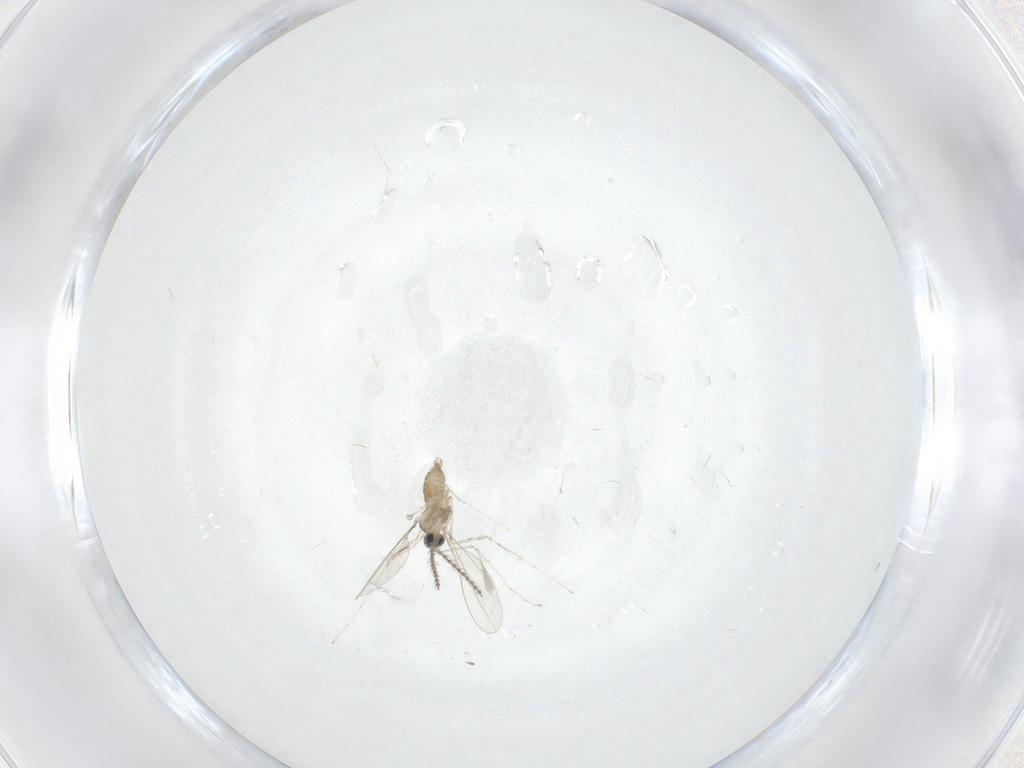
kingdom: Animalia
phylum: Arthropoda
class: Insecta
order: Diptera
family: Cecidomyiidae
